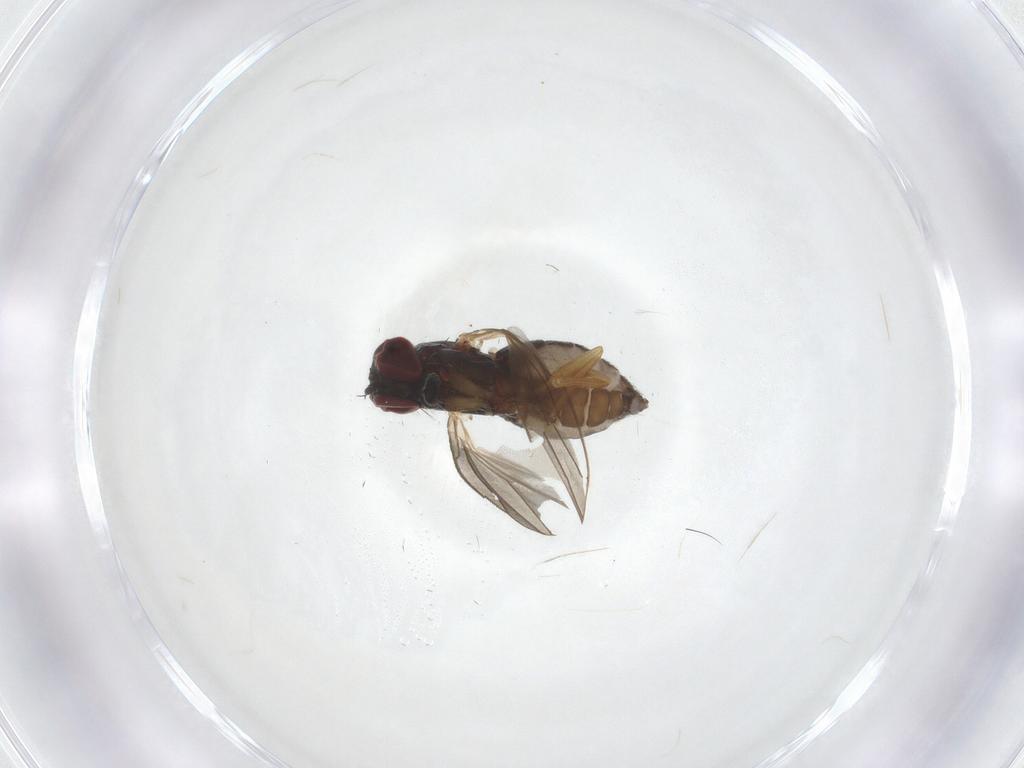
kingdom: Animalia
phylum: Arthropoda
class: Insecta
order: Diptera
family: Dolichopodidae
